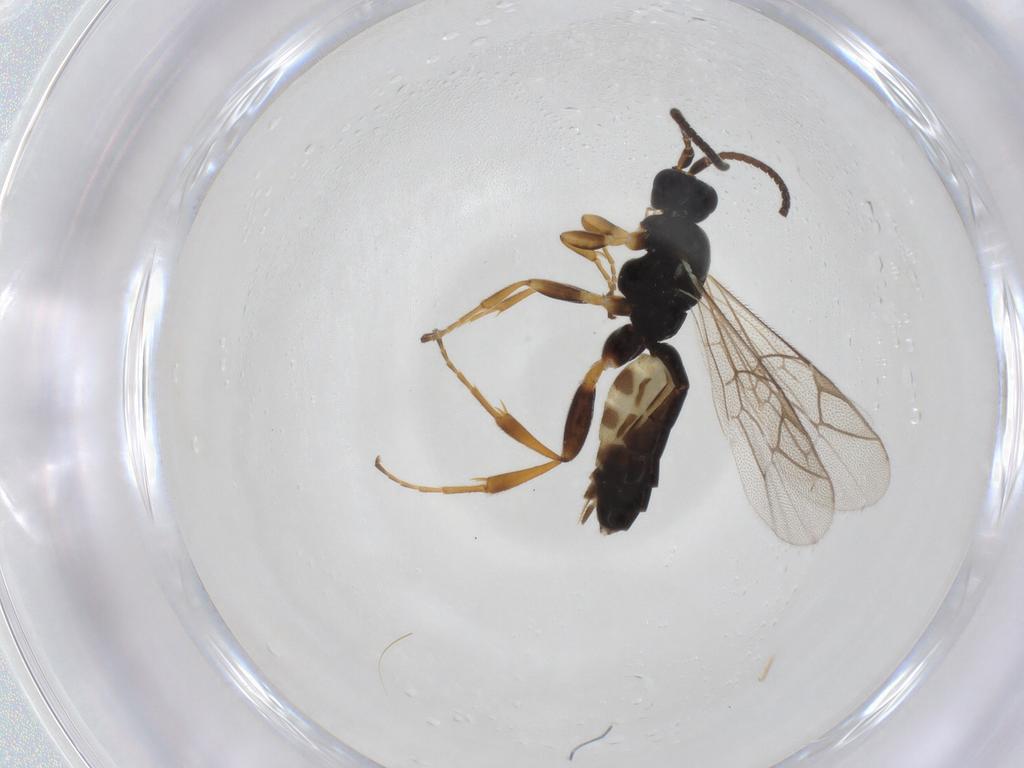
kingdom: Animalia
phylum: Arthropoda
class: Insecta
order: Hymenoptera
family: Ichneumonidae
